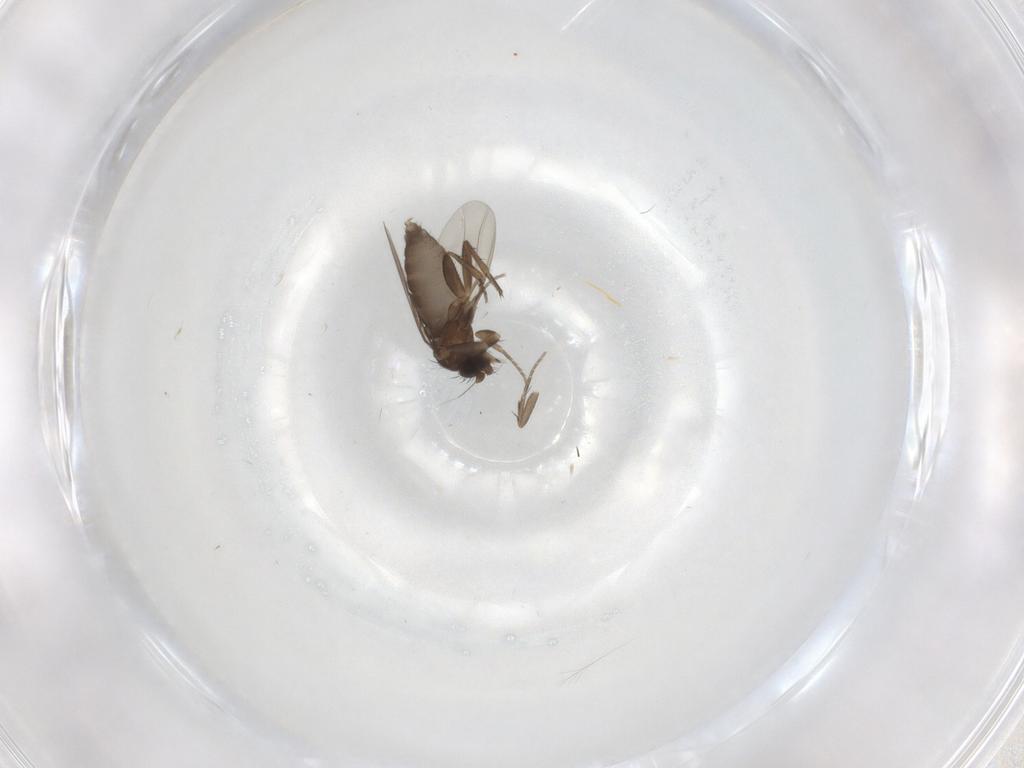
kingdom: Animalia
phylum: Arthropoda
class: Insecta
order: Diptera
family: Phoridae
